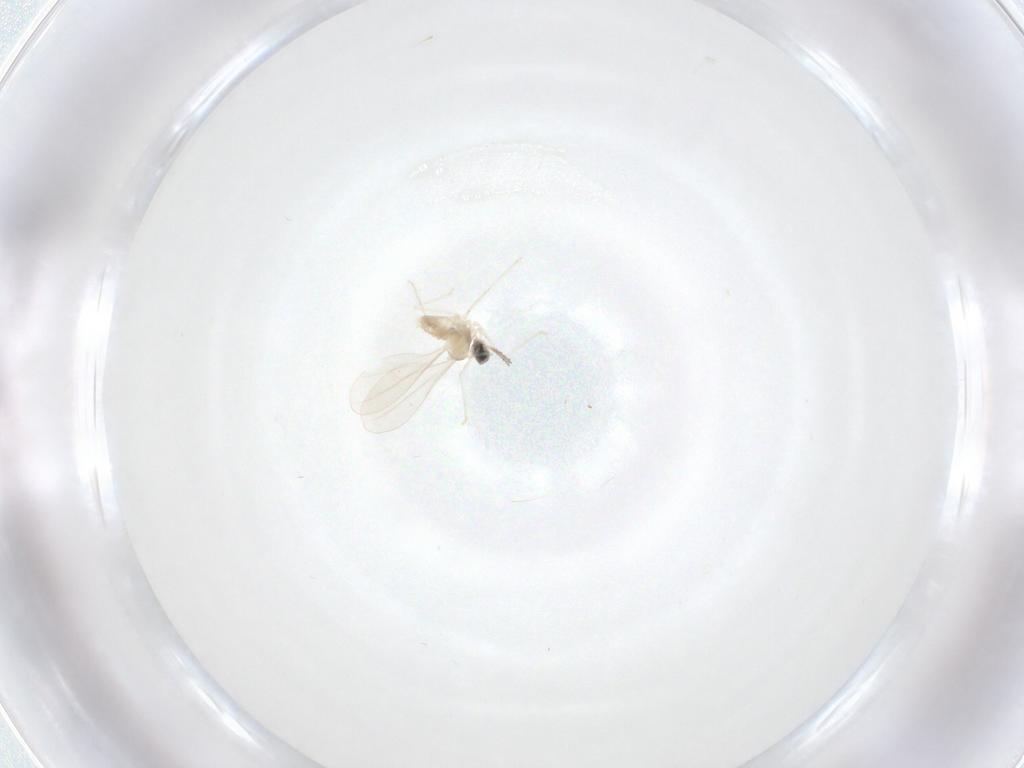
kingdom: Animalia
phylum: Arthropoda
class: Insecta
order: Diptera
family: Cecidomyiidae
